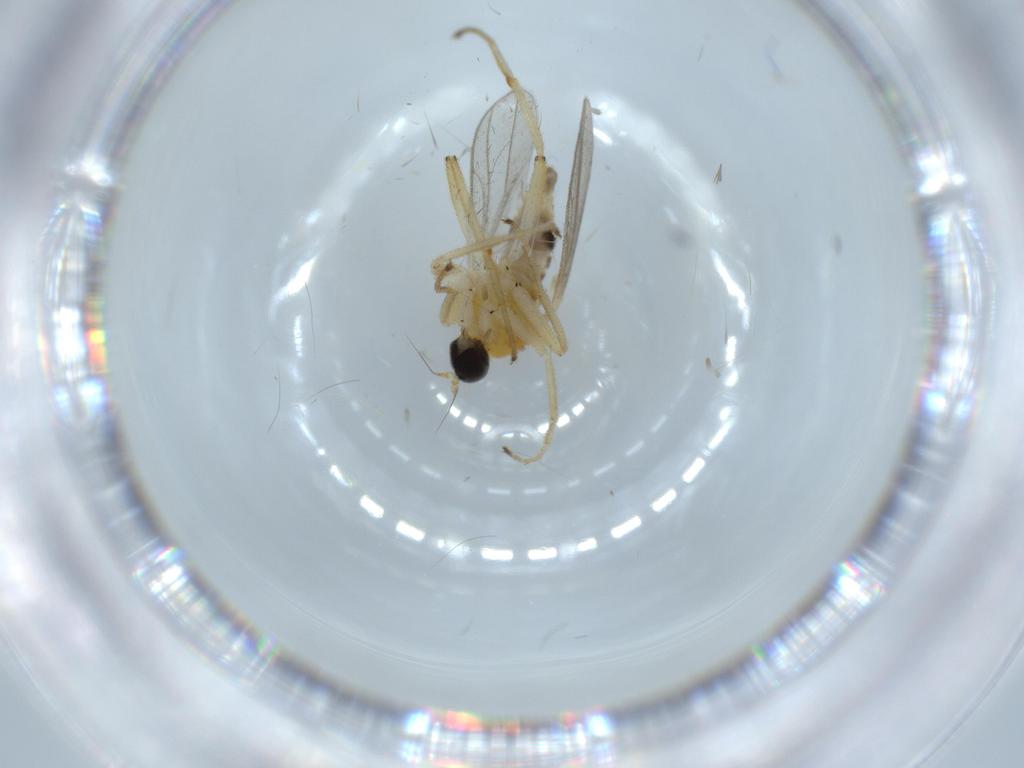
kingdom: Animalia
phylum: Arthropoda
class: Insecta
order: Diptera
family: Hybotidae
